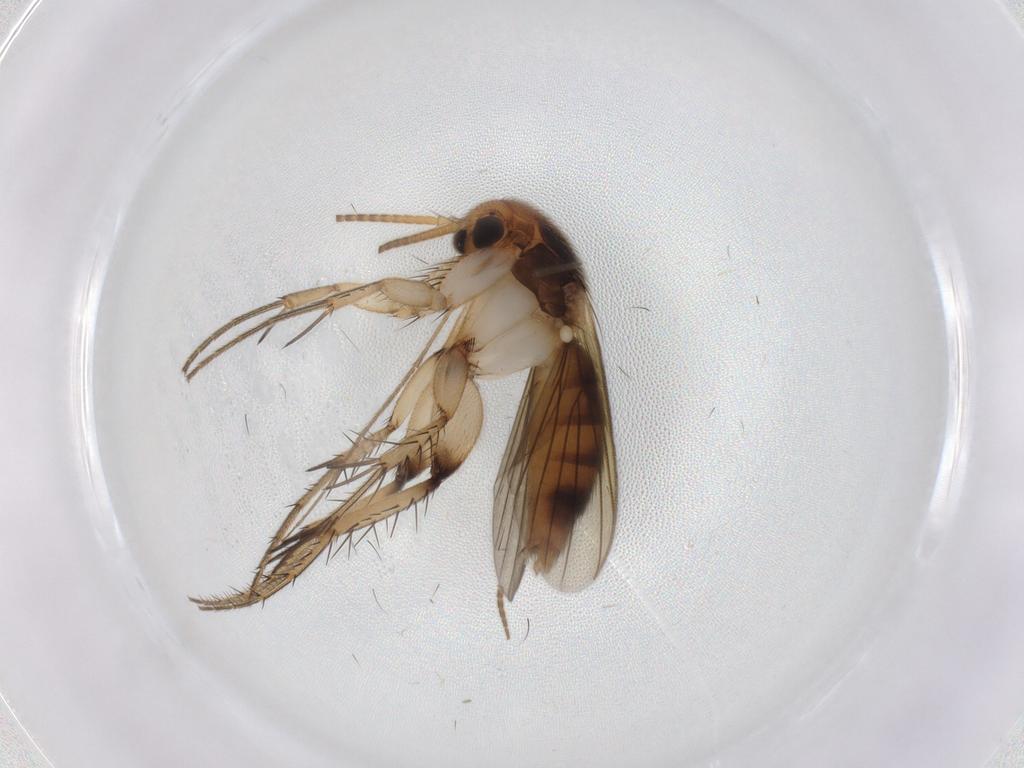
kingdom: Animalia
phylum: Arthropoda
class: Insecta
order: Diptera
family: Mycetophilidae
